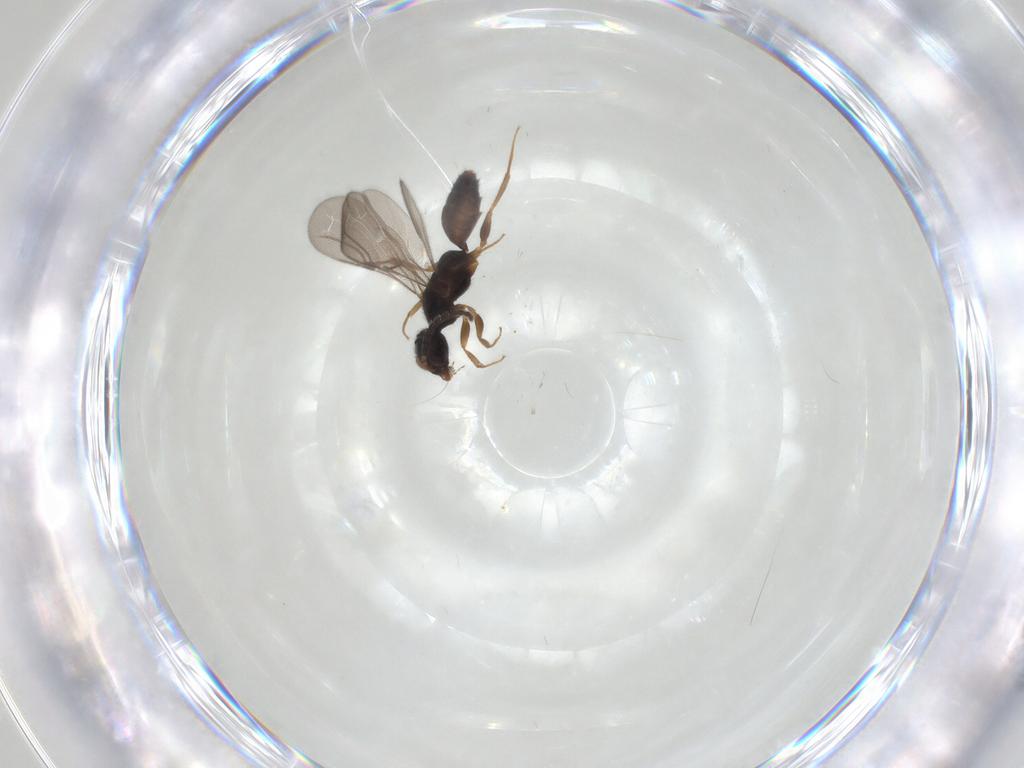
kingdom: Animalia
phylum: Arthropoda
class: Insecta
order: Hymenoptera
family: Bethylidae
